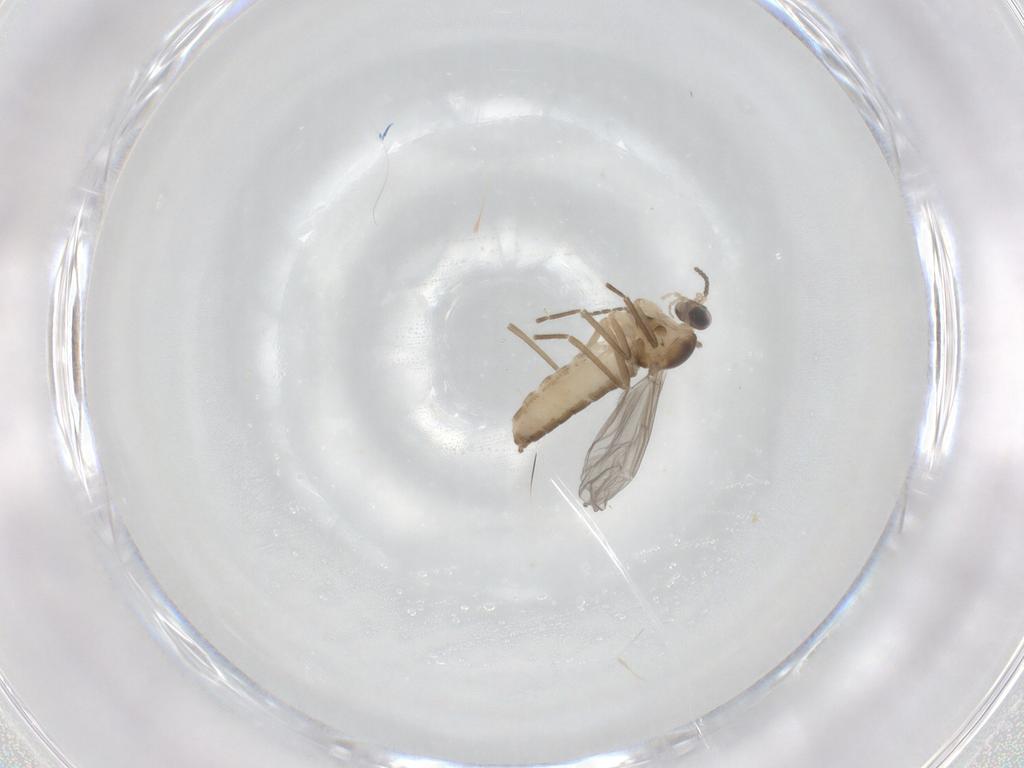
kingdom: Animalia
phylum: Arthropoda
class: Insecta
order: Diptera
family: Cecidomyiidae
